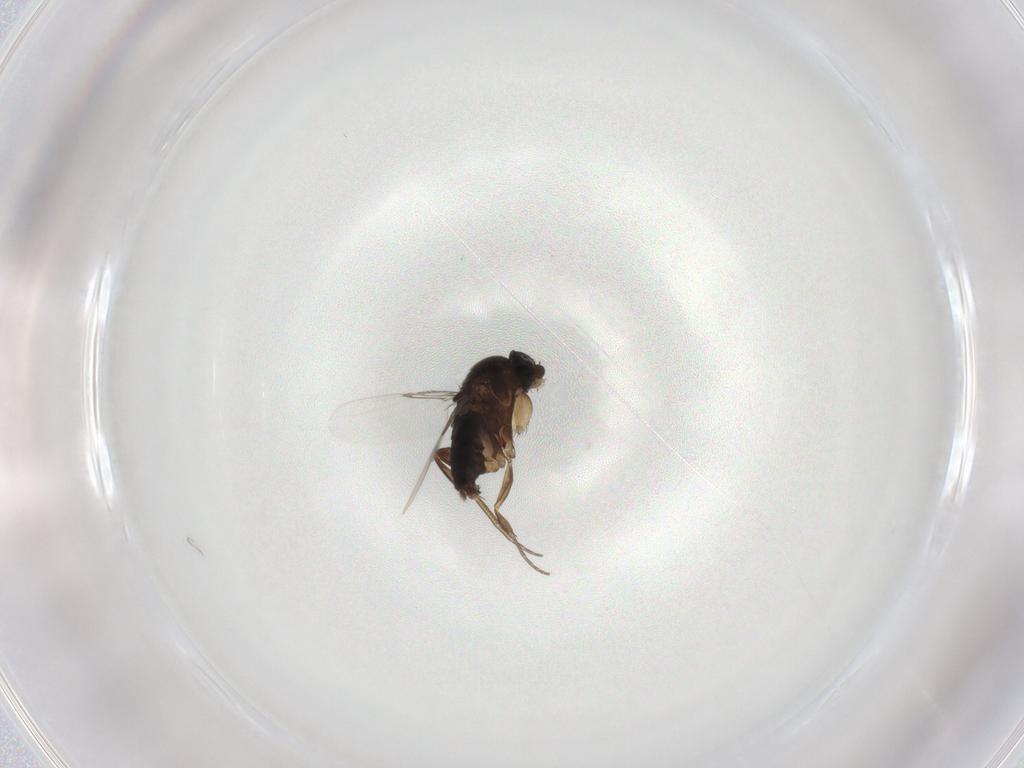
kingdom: Animalia
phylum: Arthropoda
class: Insecta
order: Diptera
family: Phoridae
